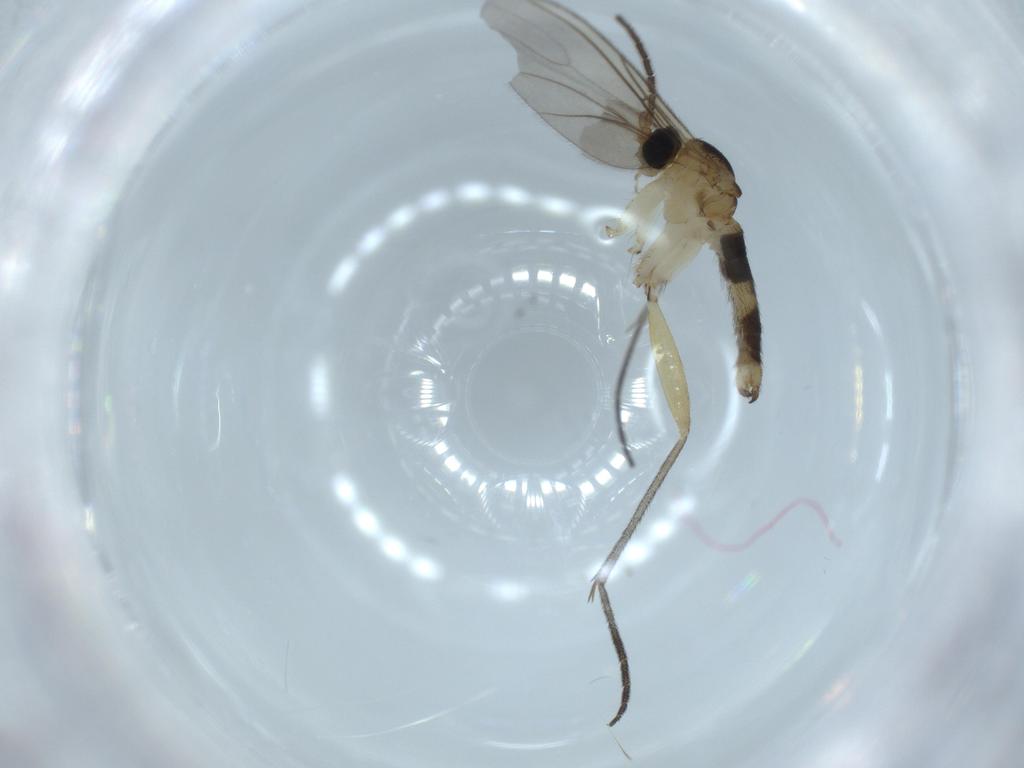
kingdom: Animalia
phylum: Arthropoda
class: Insecta
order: Diptera
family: Sciaridae
